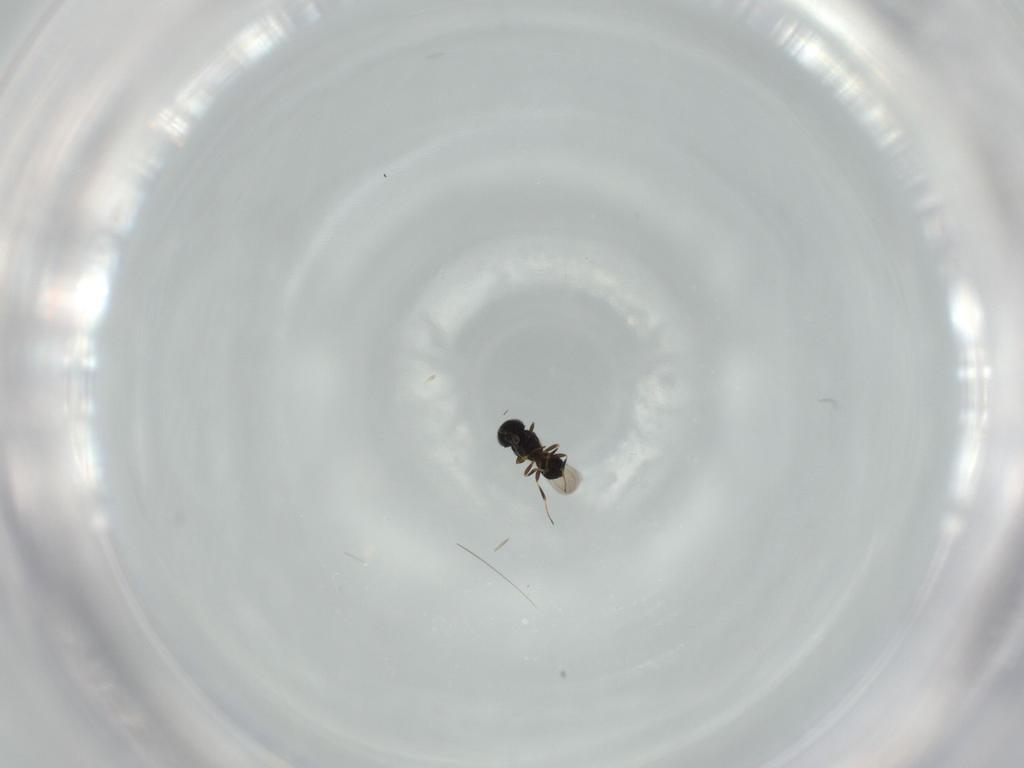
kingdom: Animalia
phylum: Arthropoda
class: Insecta
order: Hymenoptera
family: Scelionidae
